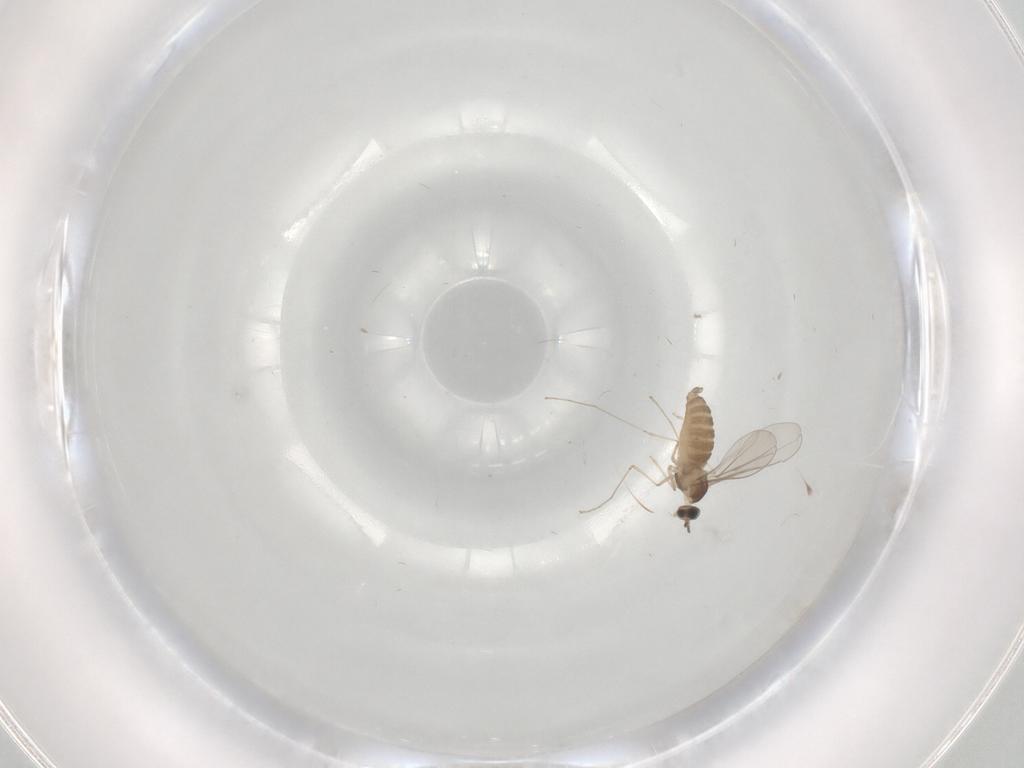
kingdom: Animalia
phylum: Arthropoda
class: Insecta
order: Diptera
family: Cecidomyiidae
